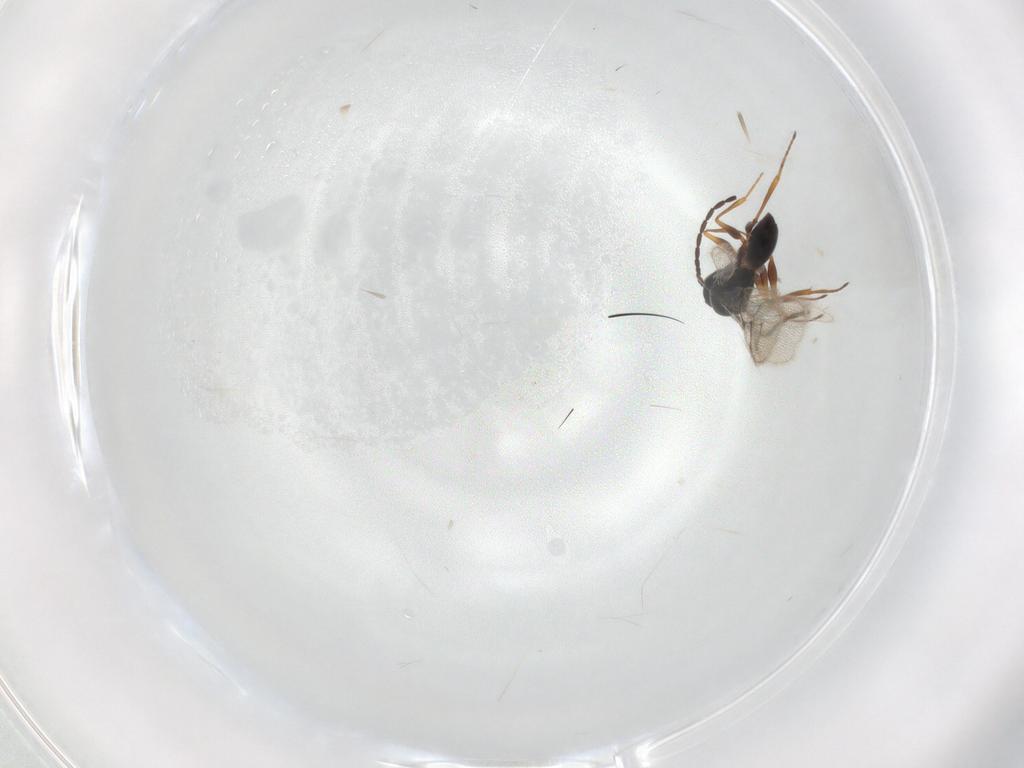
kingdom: Animalia
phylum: Arthropoda
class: Insecta
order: Hymenoptera
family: Figitidae
